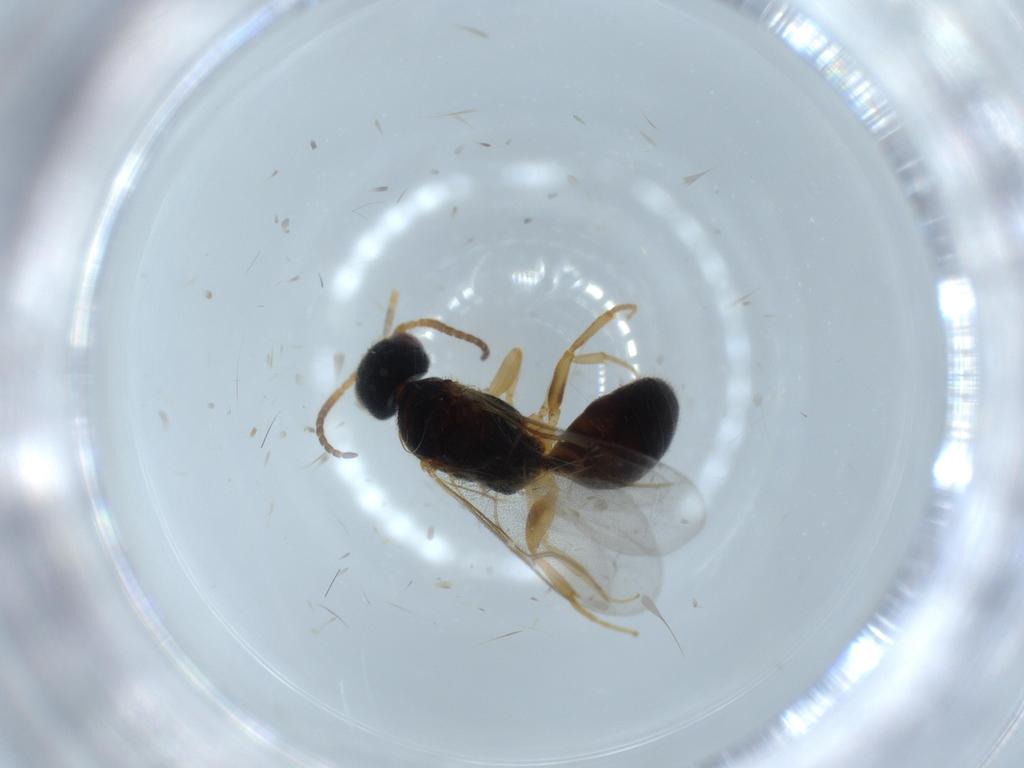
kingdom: Animalia
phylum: Arthropoda
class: Insecta
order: Hymenoptera
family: Bethylidae
